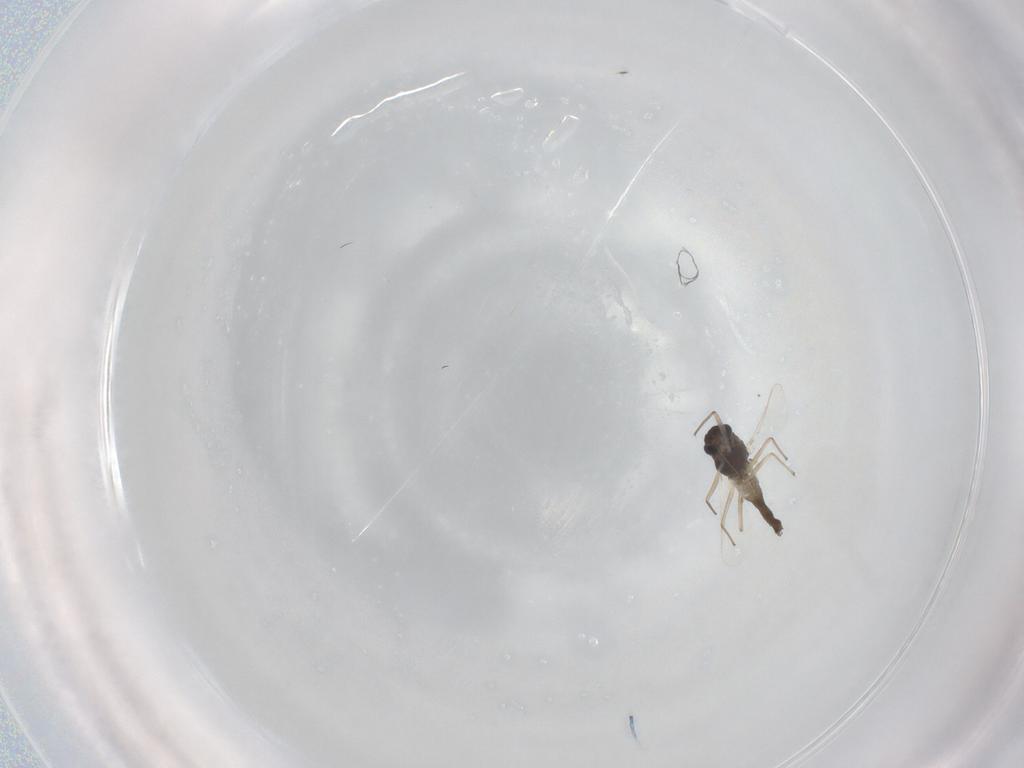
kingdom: Animalia
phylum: Arthropoda
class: Insecta
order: Diptera
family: Chironomidae
